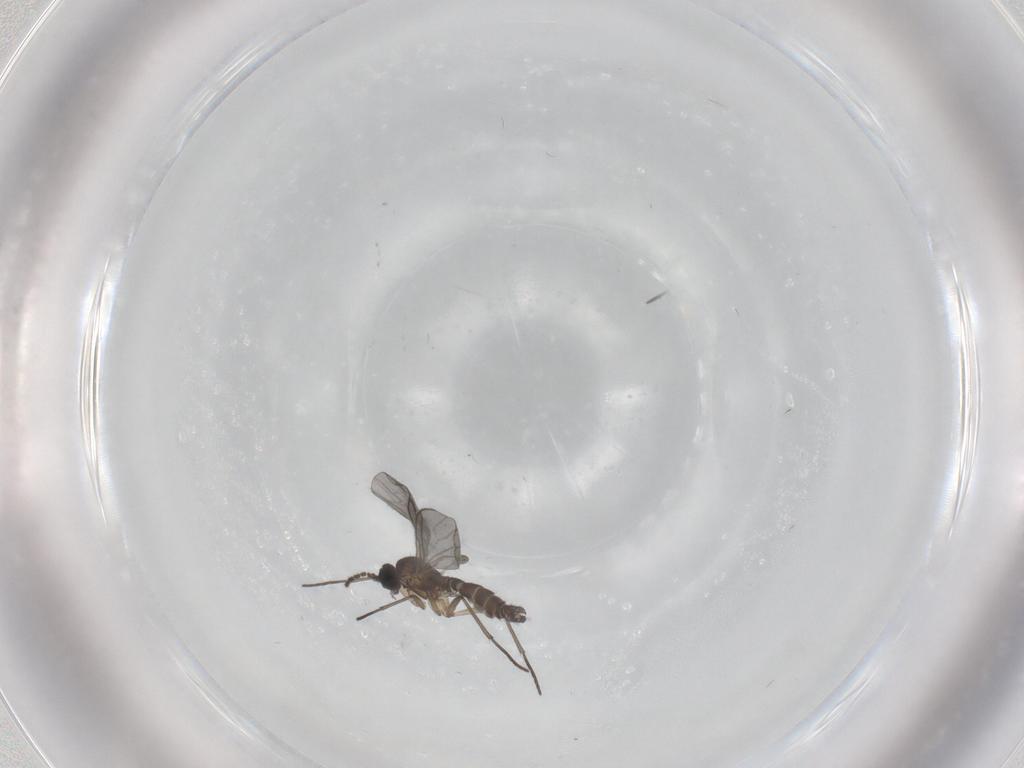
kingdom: Animalia
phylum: Arthropoda
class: Insecta
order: Diptera
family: Sciaridae
